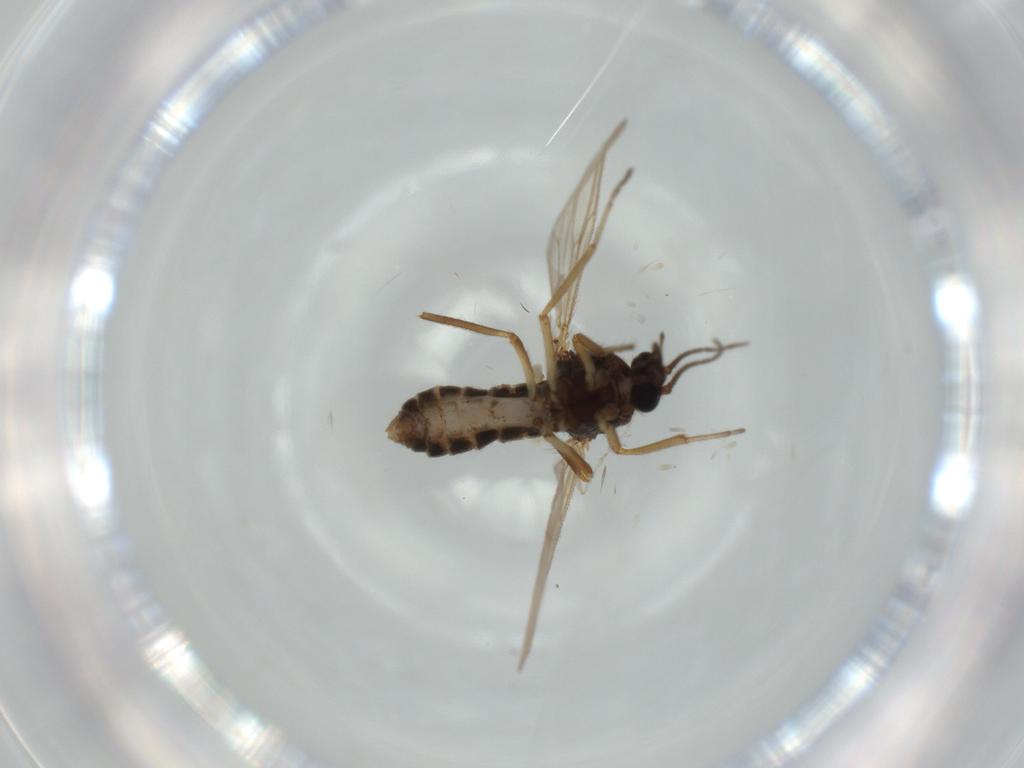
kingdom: Animalia
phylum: Arthropoda
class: Insecta
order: Diptera
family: Ceratopogonidae
